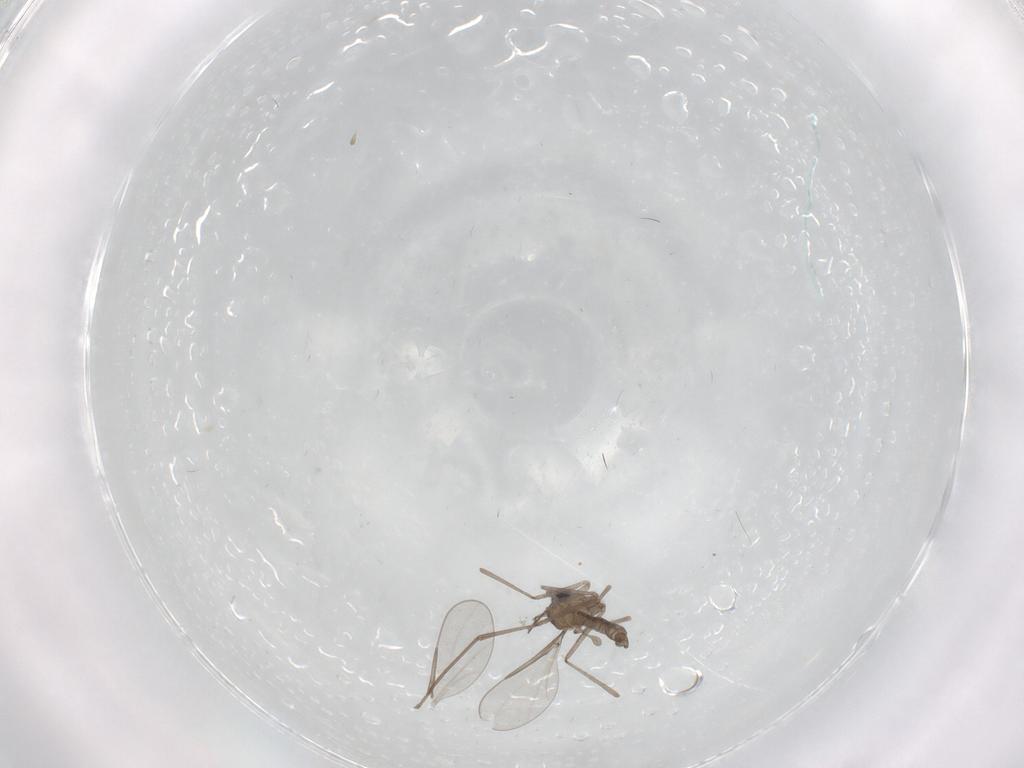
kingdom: Animalia
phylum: Arthropoda
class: Insecta
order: Diptera
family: Cecidomyiidae
